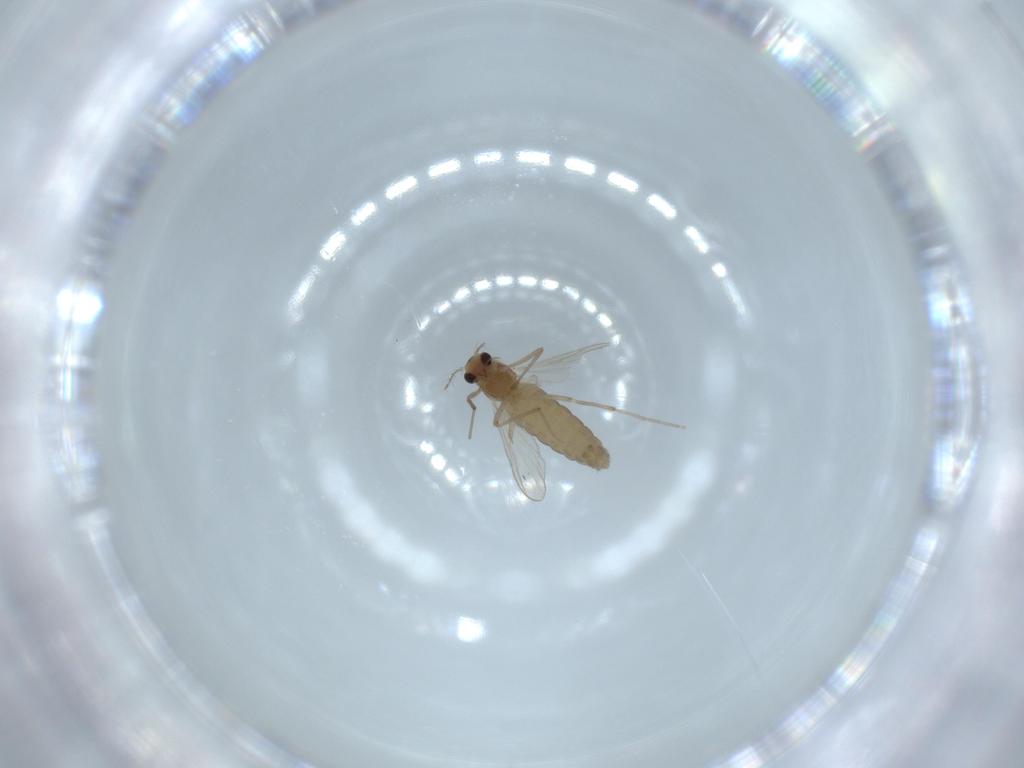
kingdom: Animalia
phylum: Arthropoda
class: Insecta
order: Diptera
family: Chironomidae
